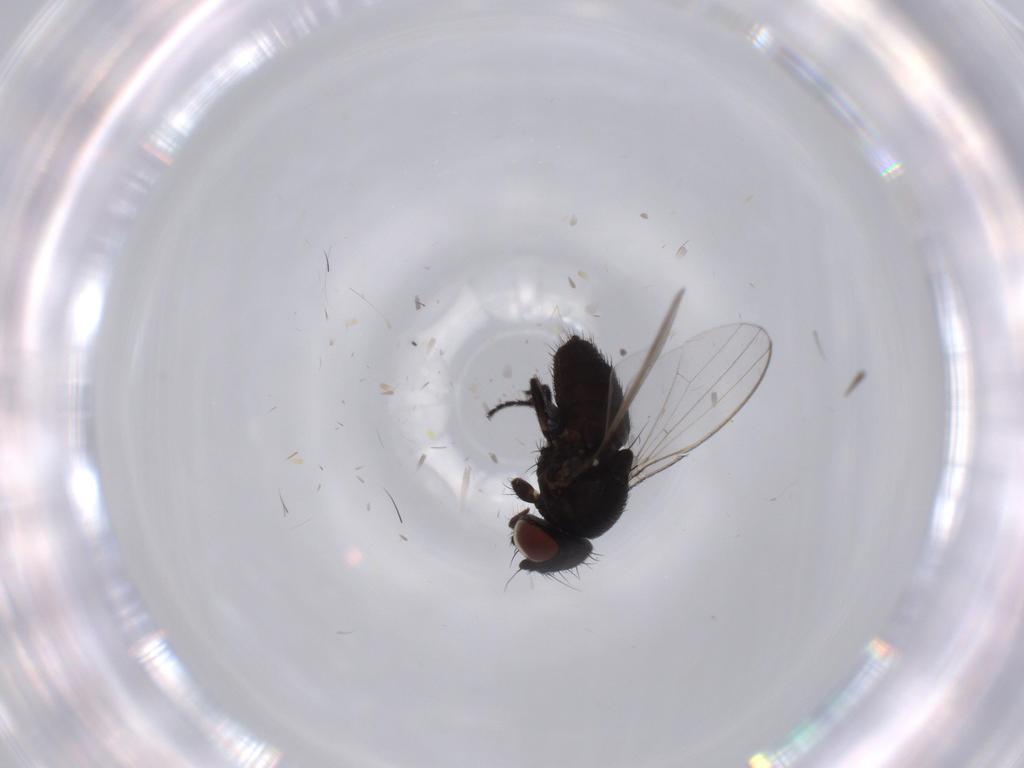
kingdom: Animalia
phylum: Arthropoda
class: Insecta
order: Diptera
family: Milichiidae
